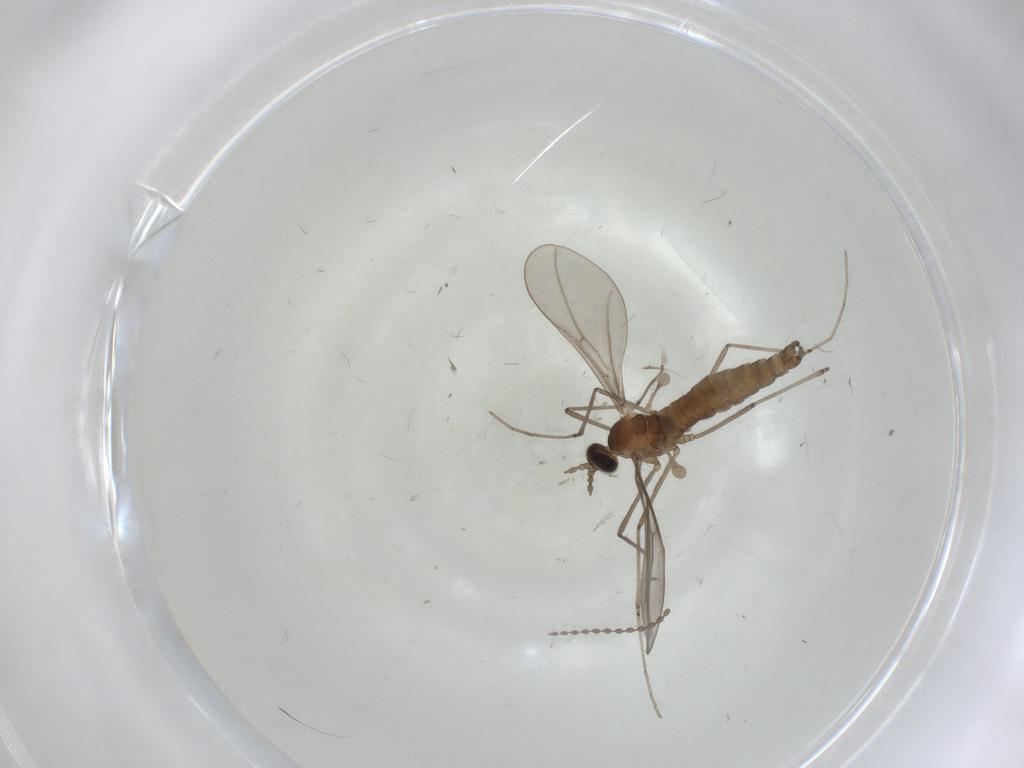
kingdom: Animalia
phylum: Arthropoda
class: Insecta
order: Diptera
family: Cecidomyiidae
